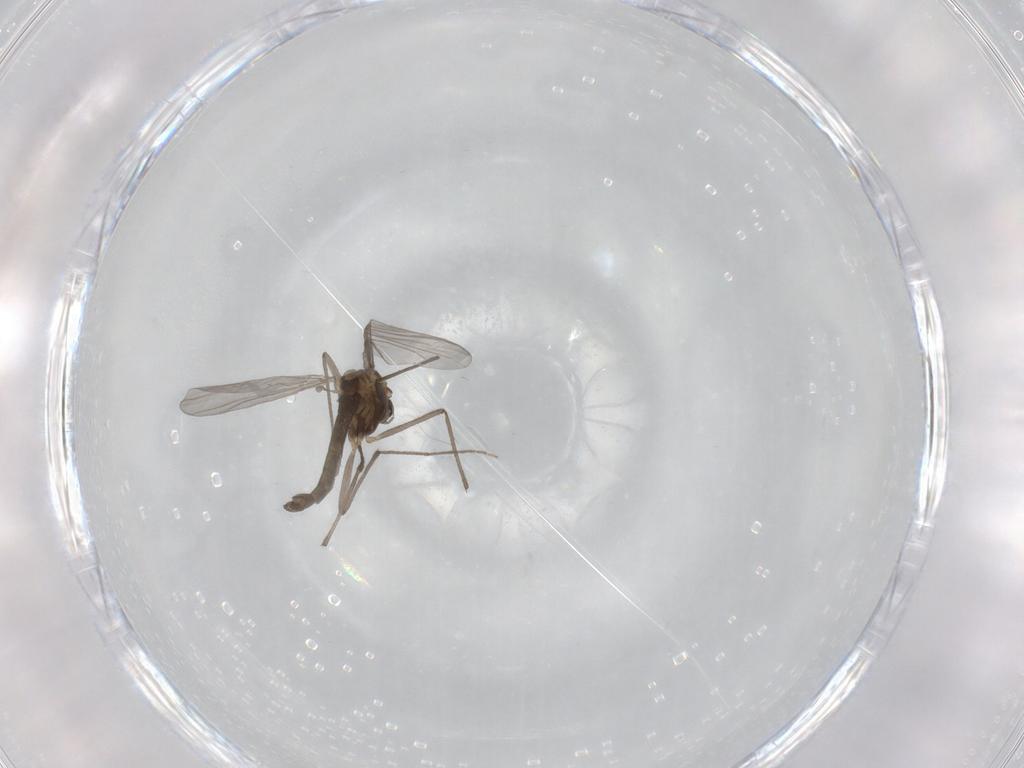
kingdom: Animalia
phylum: Arthropoda
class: Insecta
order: Diptera
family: Chironomidae
